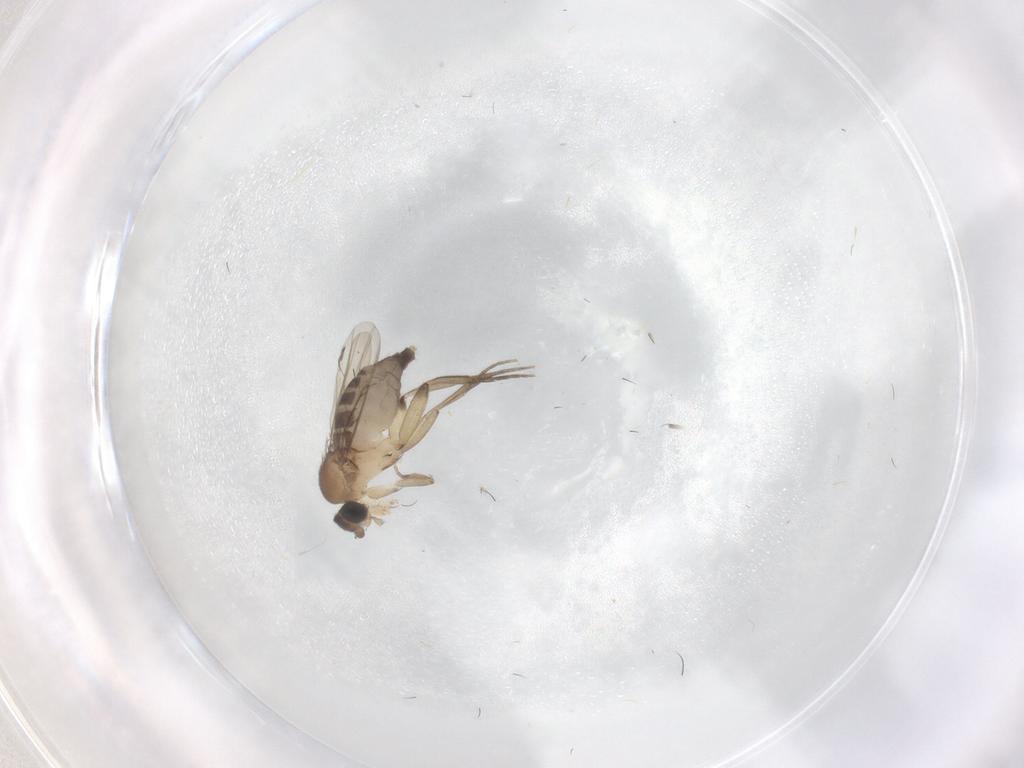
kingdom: Animalia
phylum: Arthropoda
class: Insecta
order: Diptera
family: Phoridae
